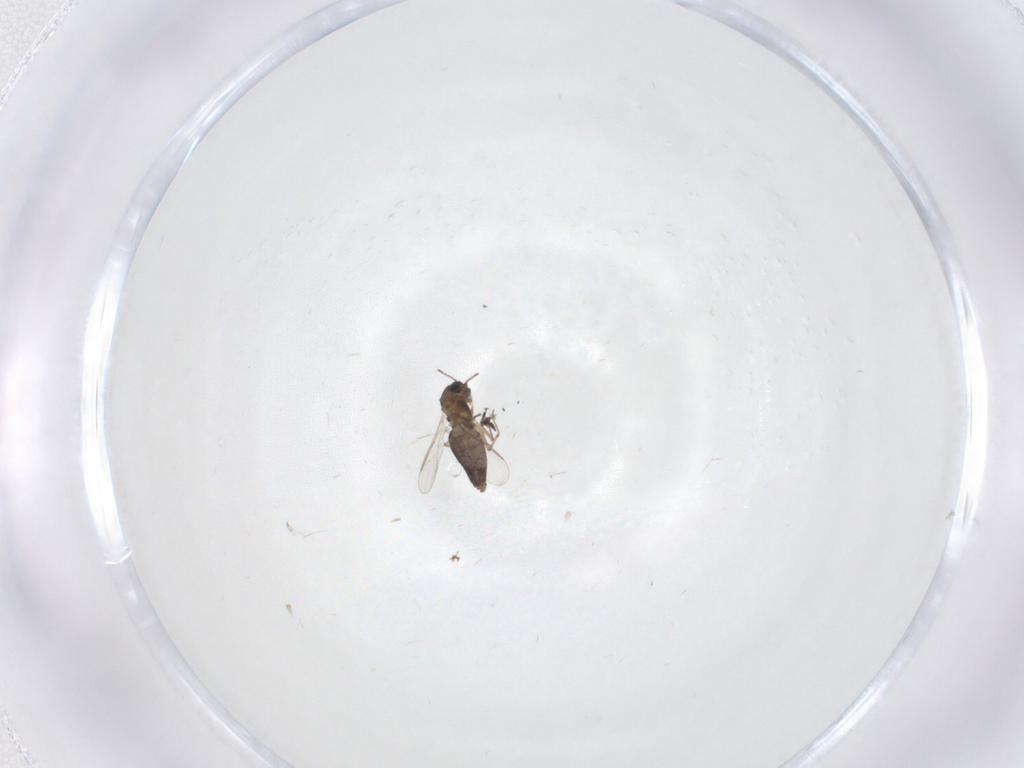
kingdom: Animalia
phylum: Arthropoda
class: Insecta
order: Diptera
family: Chironomidae
